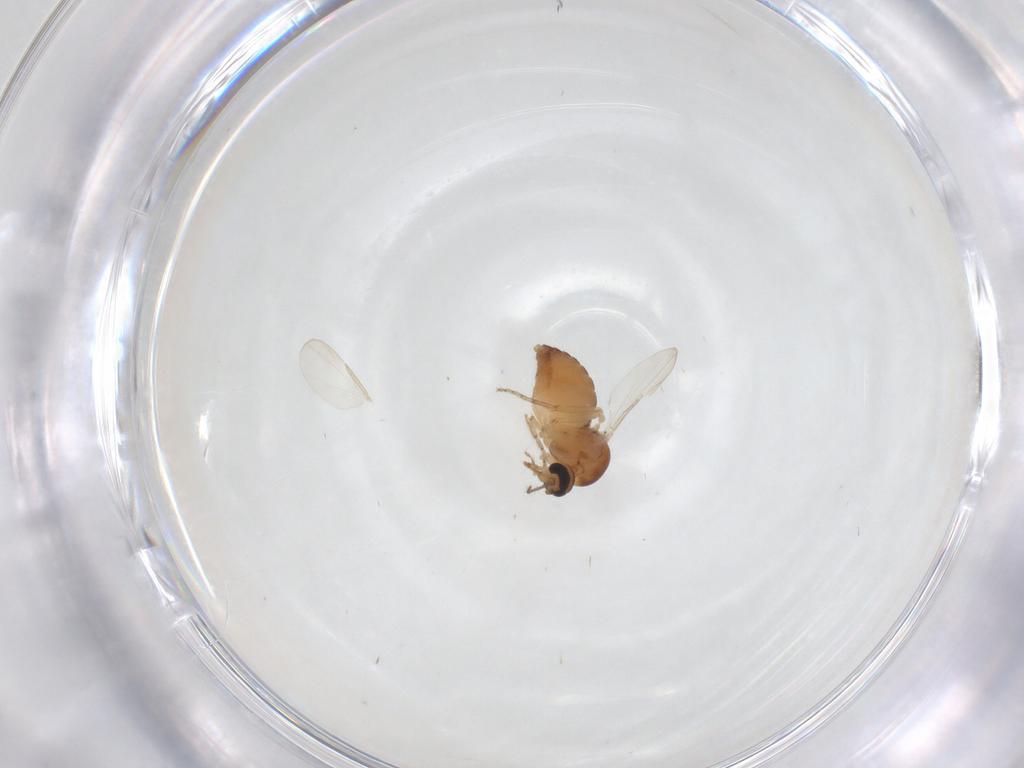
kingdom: Animalia
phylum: Arthropoda
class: Insecta
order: Diptera
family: Ceratopogonidae
